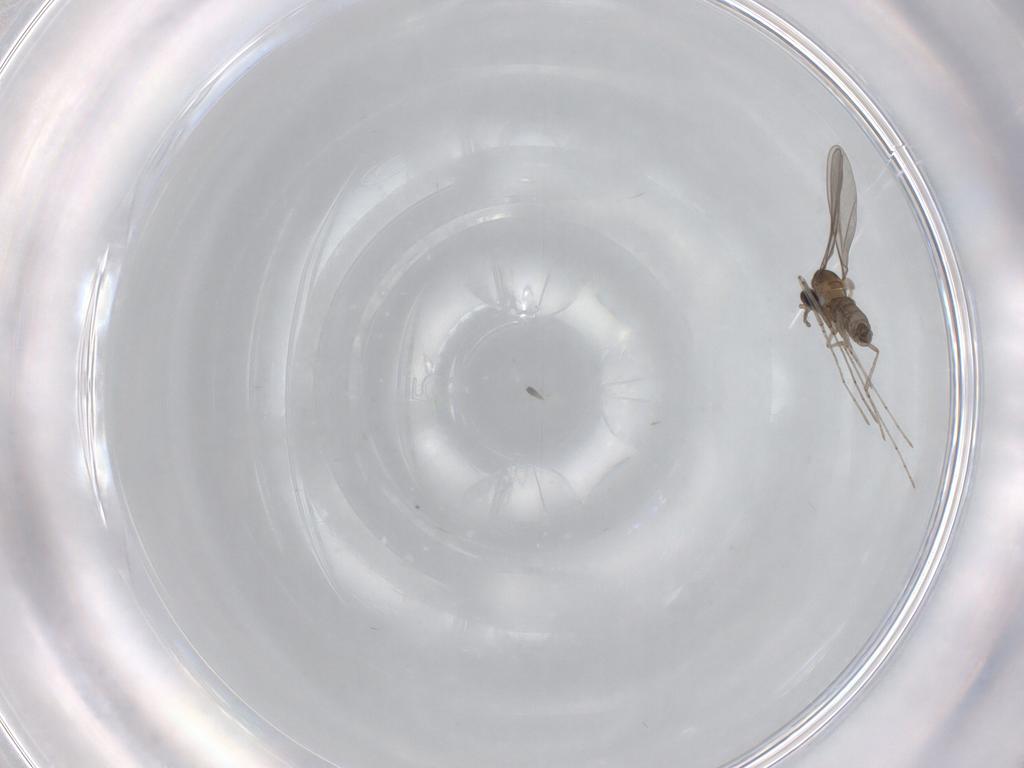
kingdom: Animalia
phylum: Arthropoda
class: Insecta
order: Diptera
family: Cecidomyiidae
